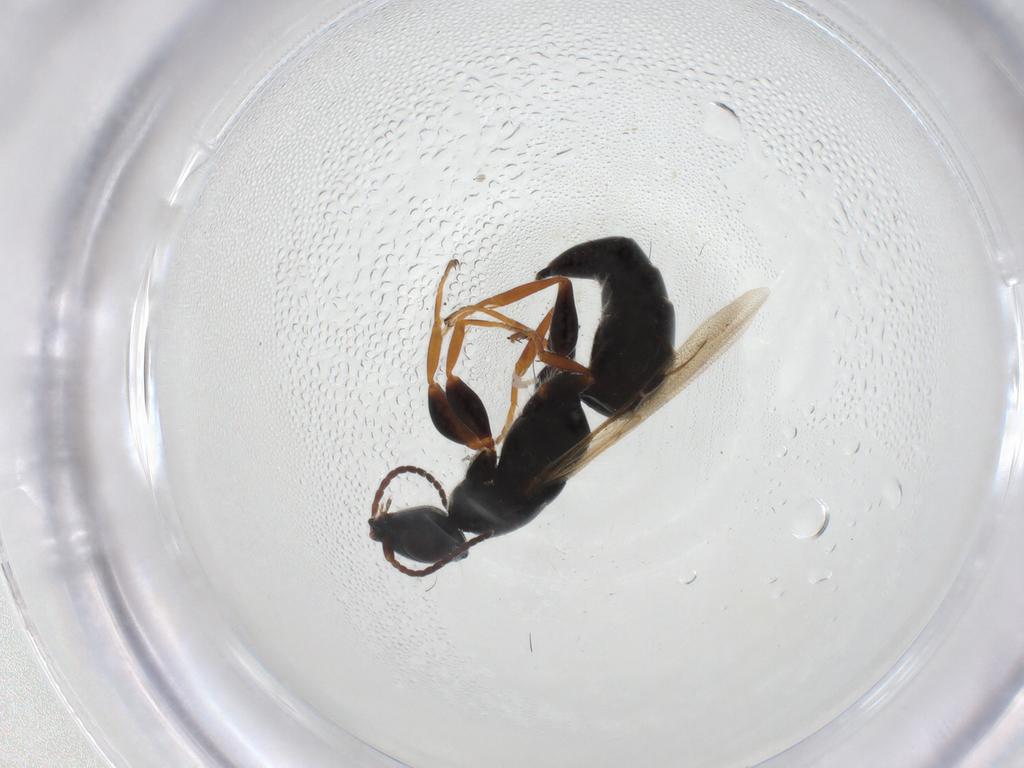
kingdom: Animalia
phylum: Arthropoda
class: Insecta
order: Hymenoptera
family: Bethylidae
